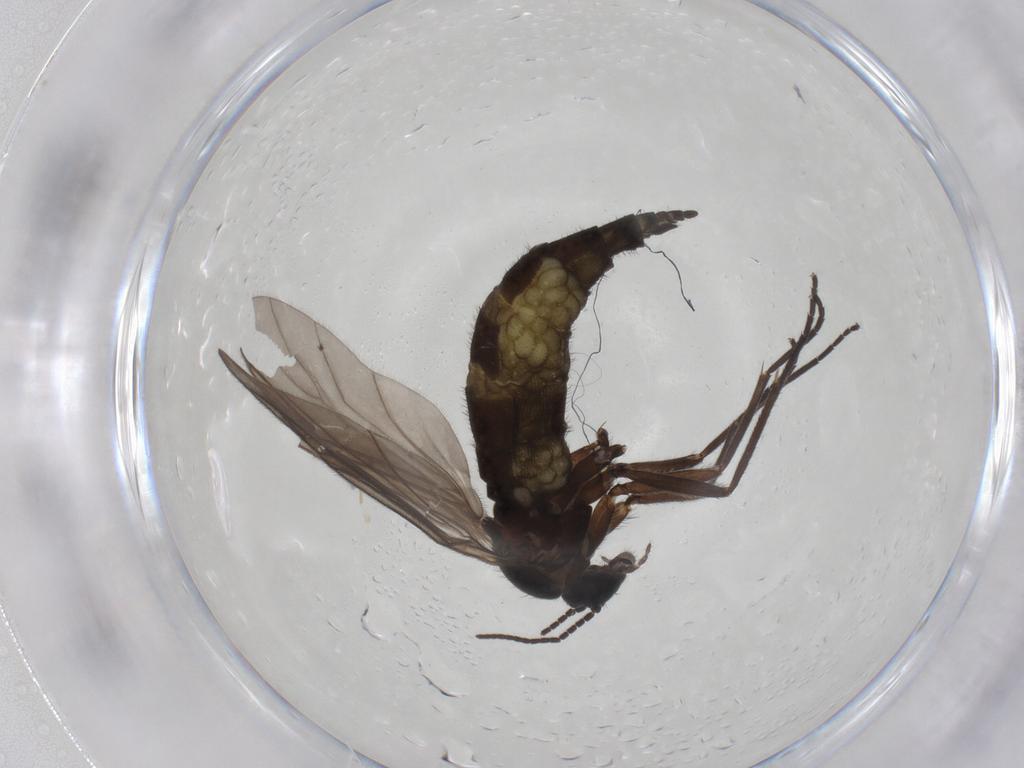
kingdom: Animalia
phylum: Arthropoda
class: Insecta
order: Diptera
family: Sciaridae
